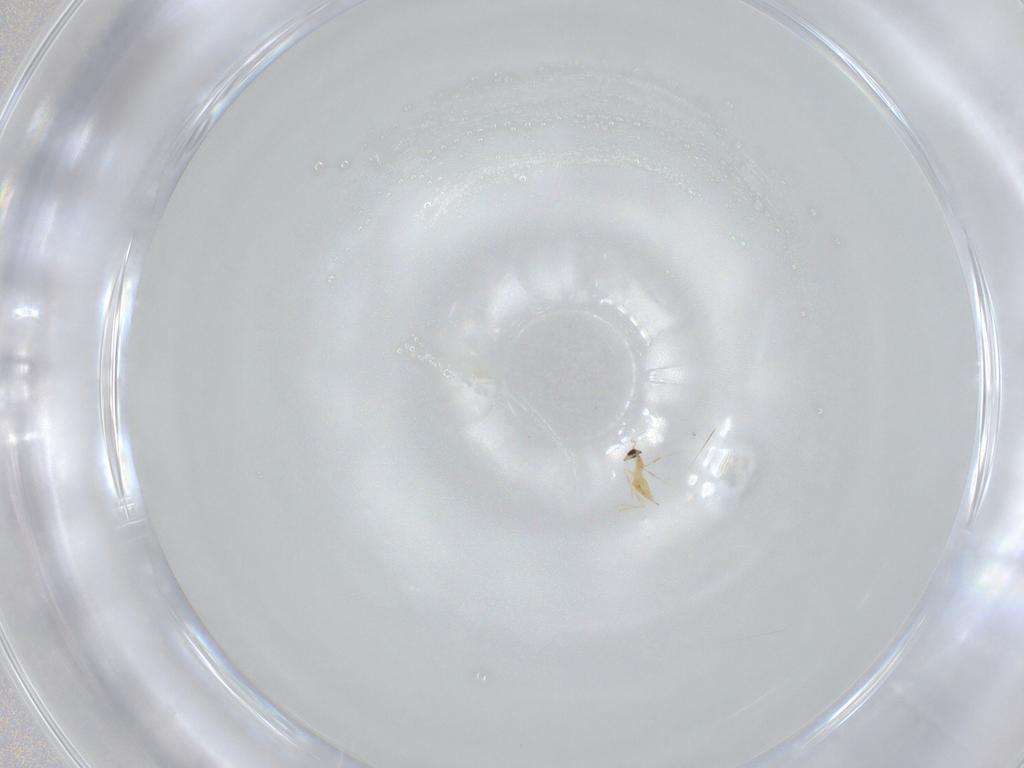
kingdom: Animalia
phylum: Arthropoda
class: Insecta
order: Hymenoptera
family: Mymaridae
